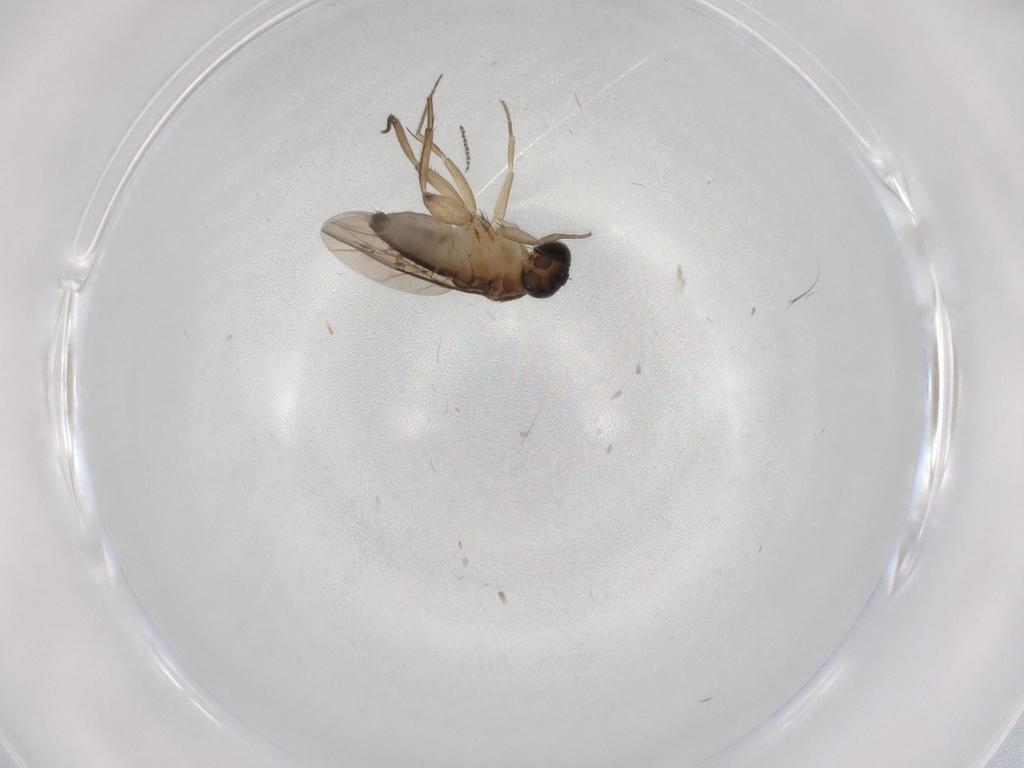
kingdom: Animalia
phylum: Arthropoda
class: Insecta
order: Diptera
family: Phoridae
